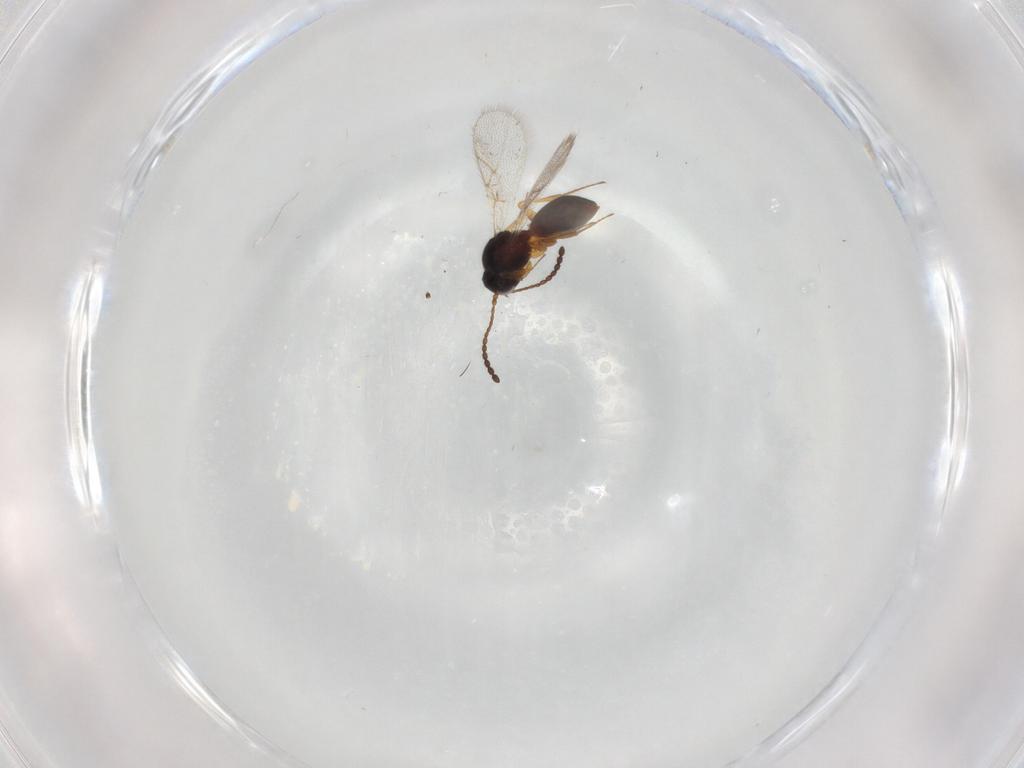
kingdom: Animalia
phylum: Arthropoda
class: Insecta
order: Hymenoptera
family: Figitidae
